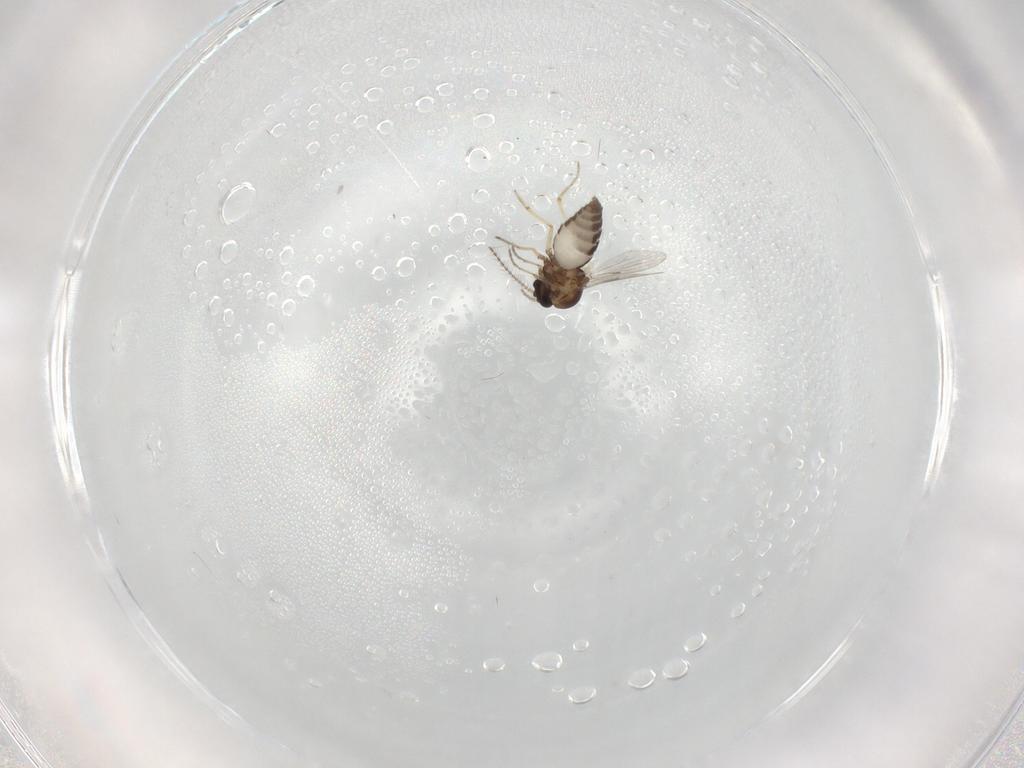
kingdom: Animalia
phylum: Arthropoda
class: Insecta
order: Diptera
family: Ceratopogonidae
